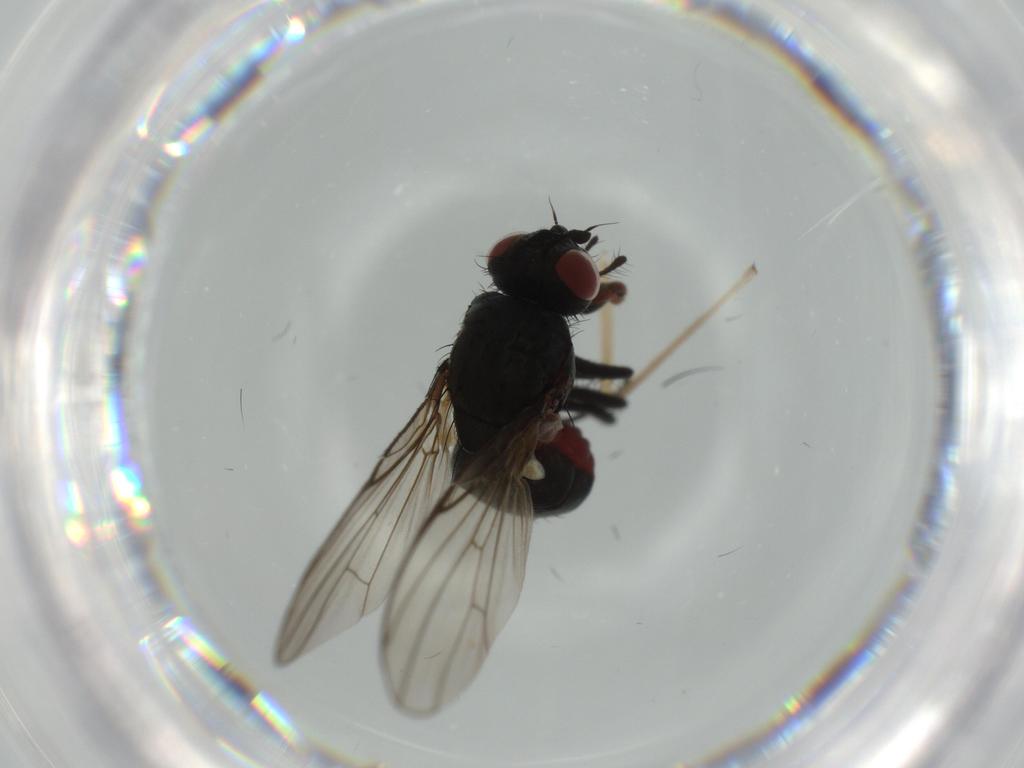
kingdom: Animalia
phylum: Arthropoda
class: Insecta
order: Diptera
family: Anthomyiidae
